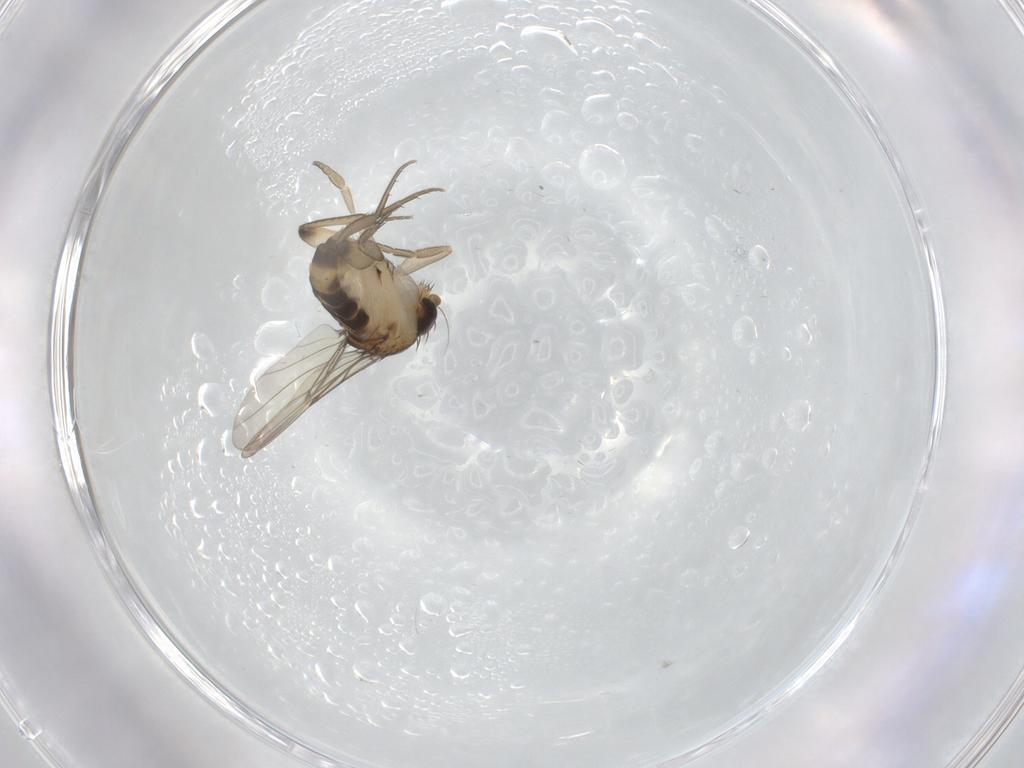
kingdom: Animalia
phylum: Arthropoda
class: Insecta
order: Diptera
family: Phoridae
